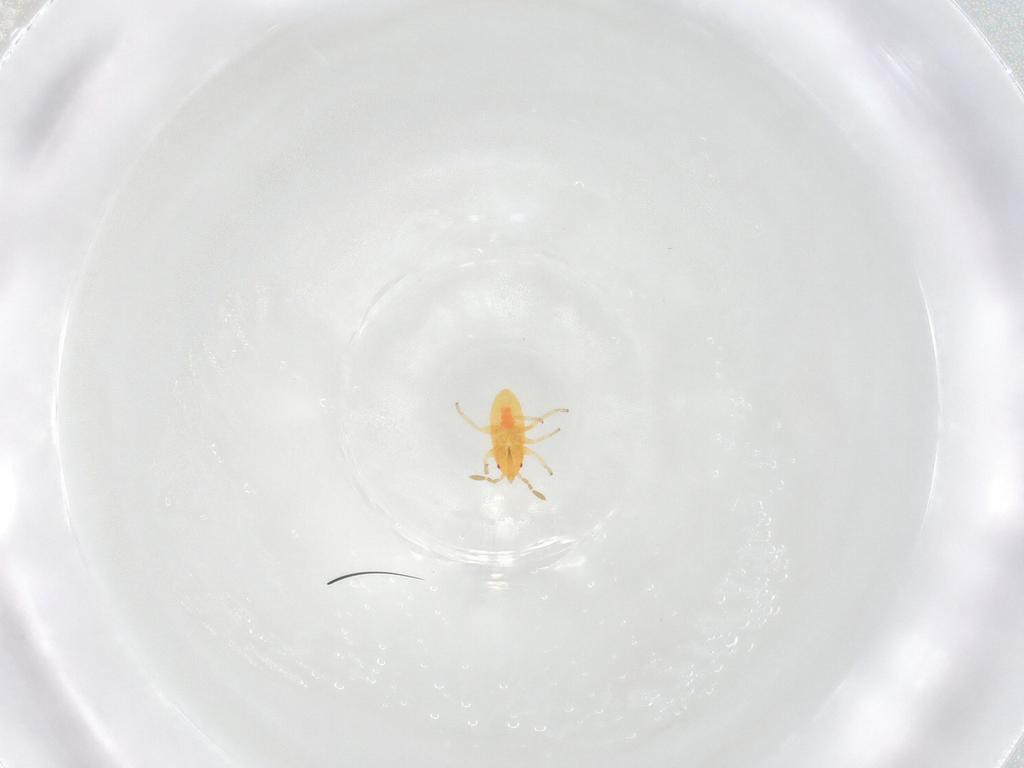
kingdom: Animalia
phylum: Arthropoda
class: Insecta
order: Hemiptera
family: Anthocoridae
